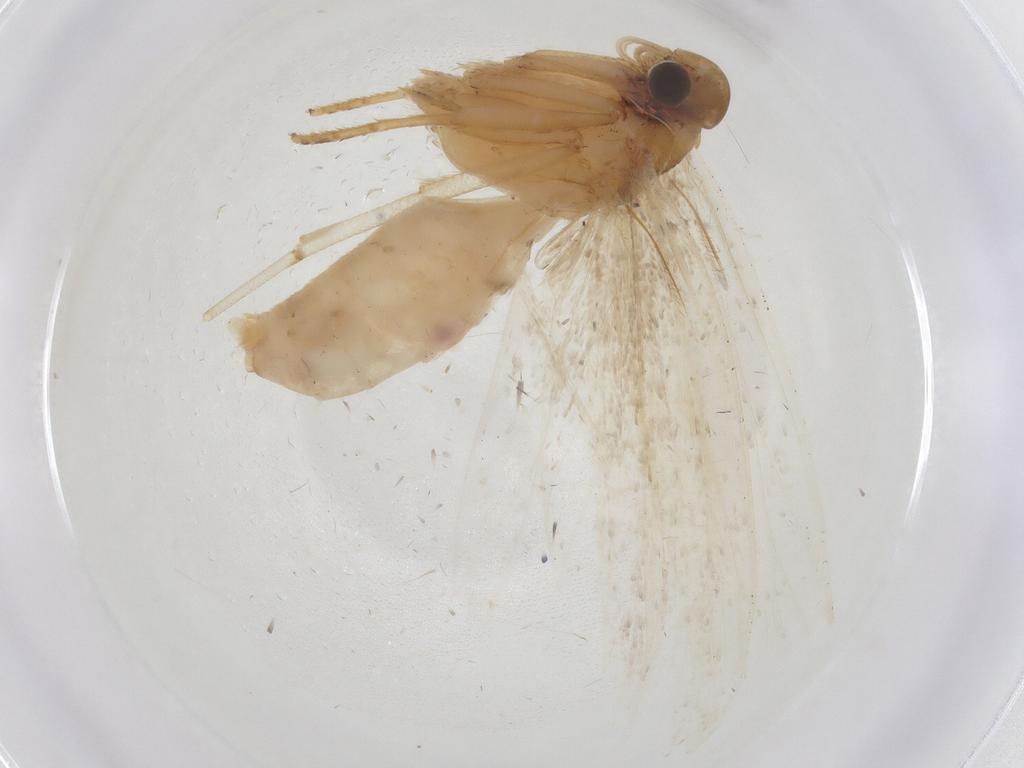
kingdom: Animalia
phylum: Arthropoda
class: Insecta
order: Lepidoptera
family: Gelechiidae
